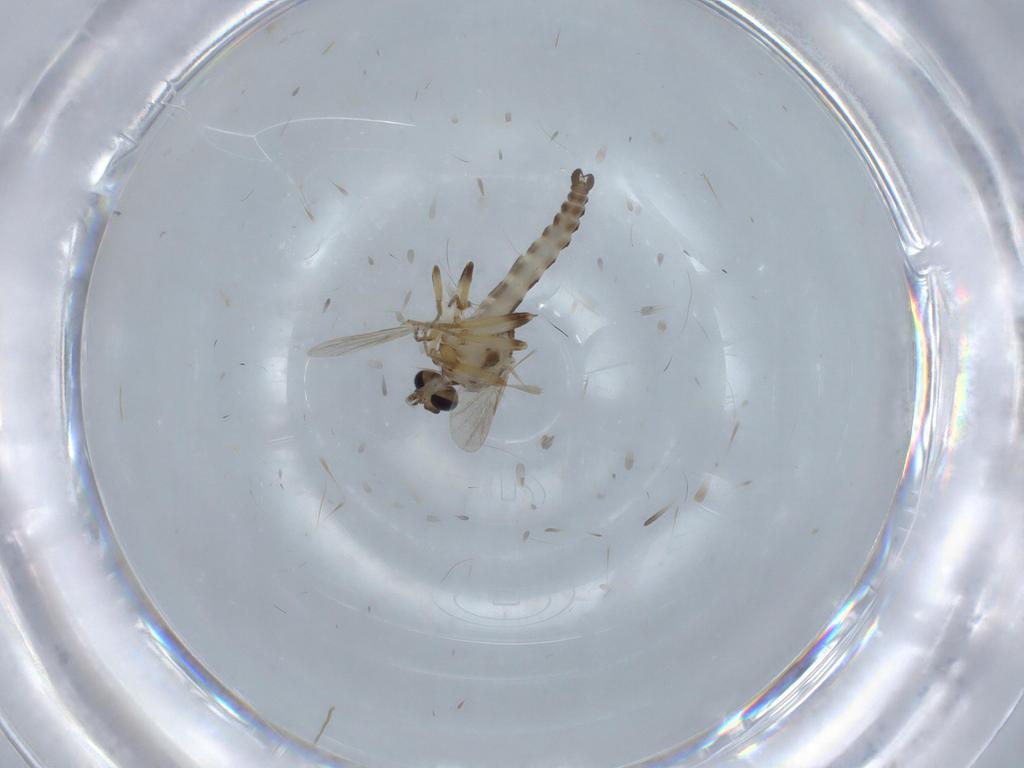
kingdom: Animalia
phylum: Arthropoda
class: Insecta
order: Diptera
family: Ceratopogonidae
